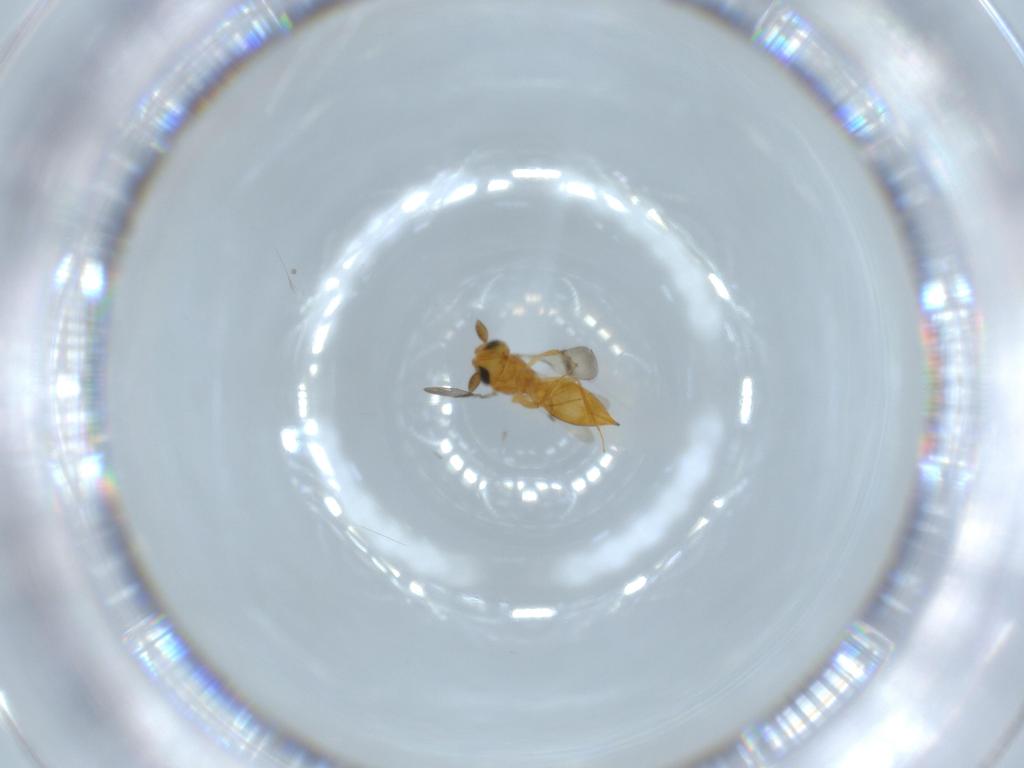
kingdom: Animalia
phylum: Arthropoda
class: Insecta
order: Hymenoptera
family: Scelionidae
